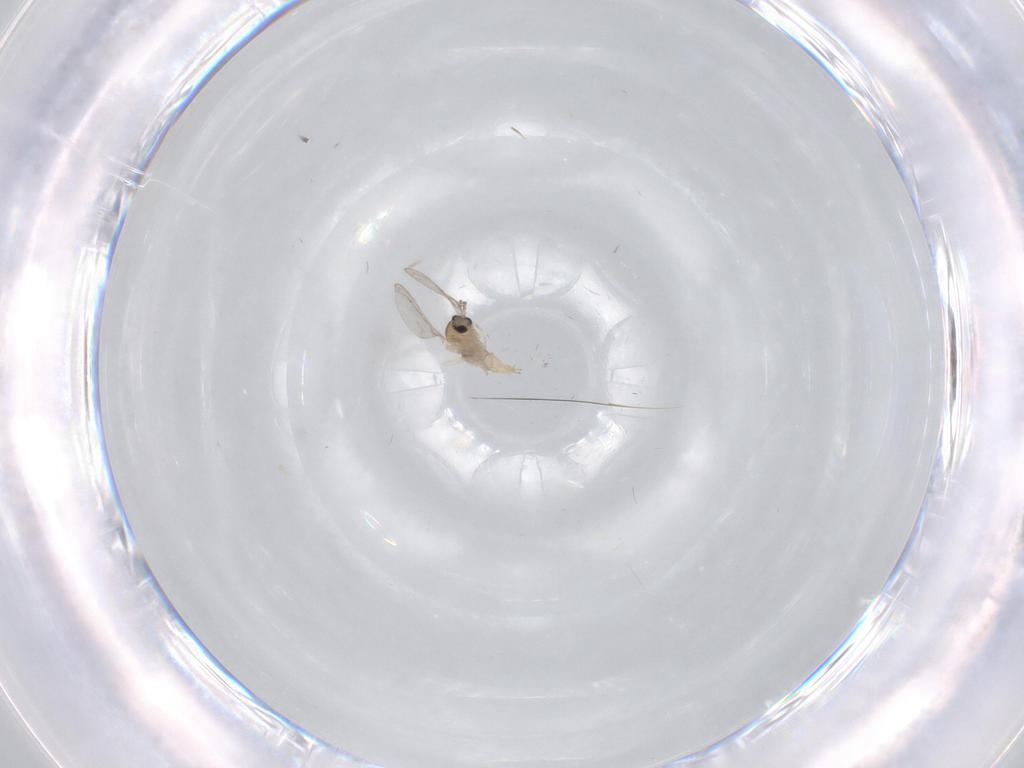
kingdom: Animalia
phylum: Arthropoda
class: Insecta
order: Diptera
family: Cecidomyiidae
